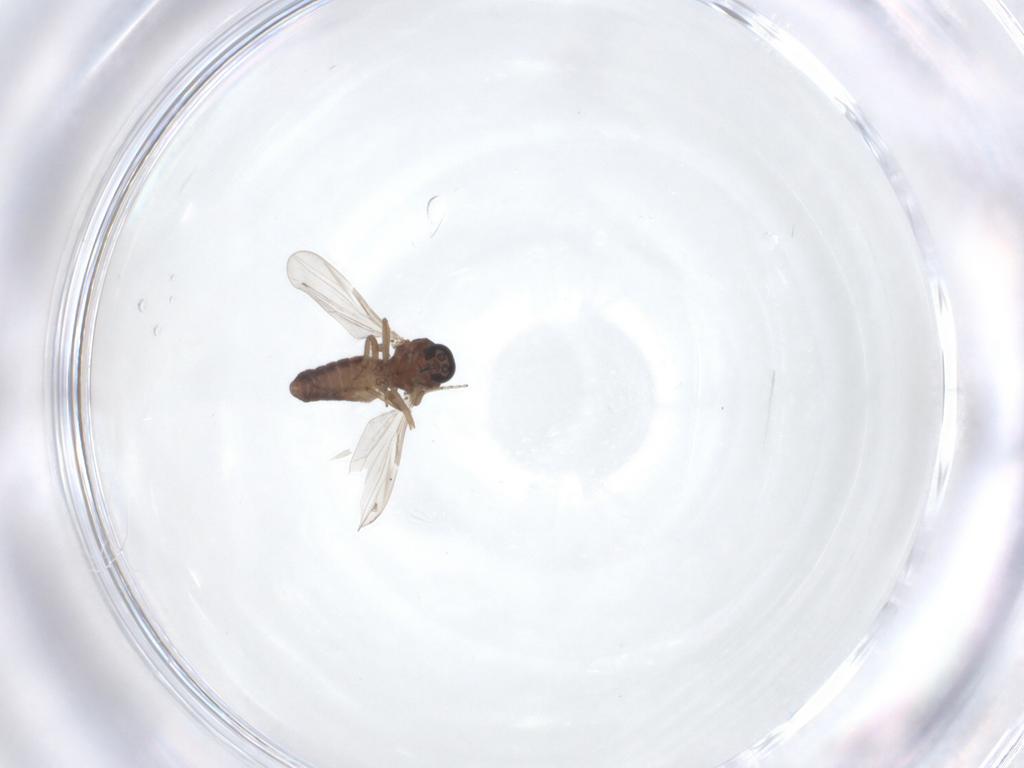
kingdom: Animalia
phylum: Arthropoda
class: Insecta
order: Diptera
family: Ceratopogonidae
